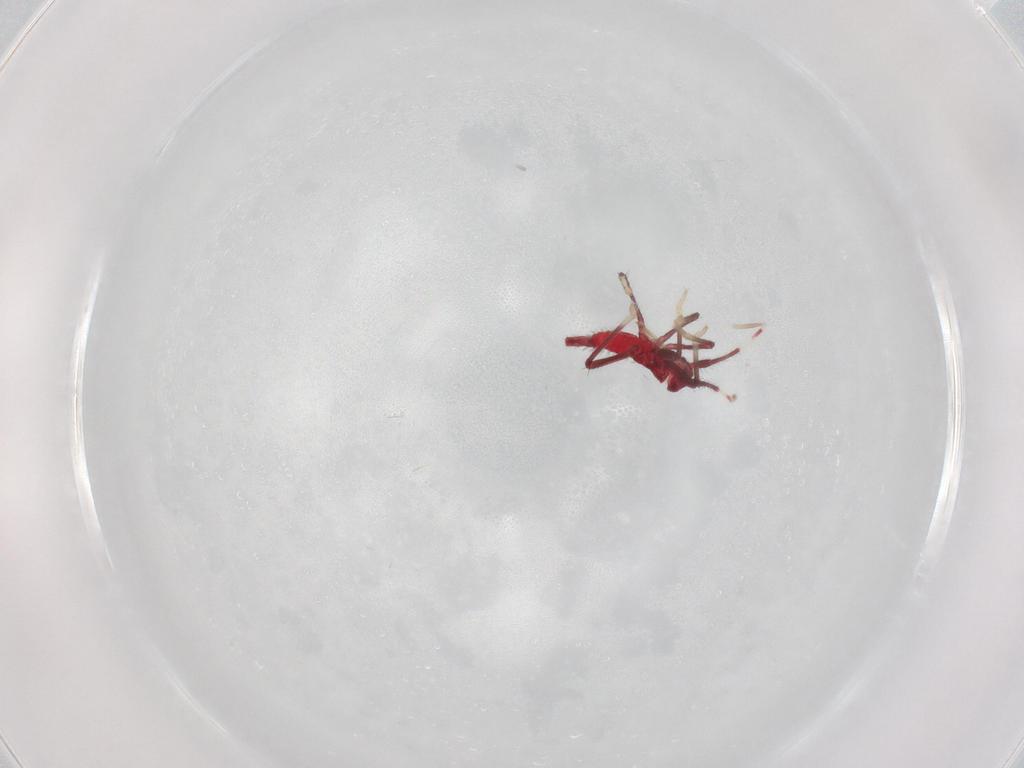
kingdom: Animalia
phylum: Arthropoda
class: Insecta
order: Hemiptera
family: Miridae
